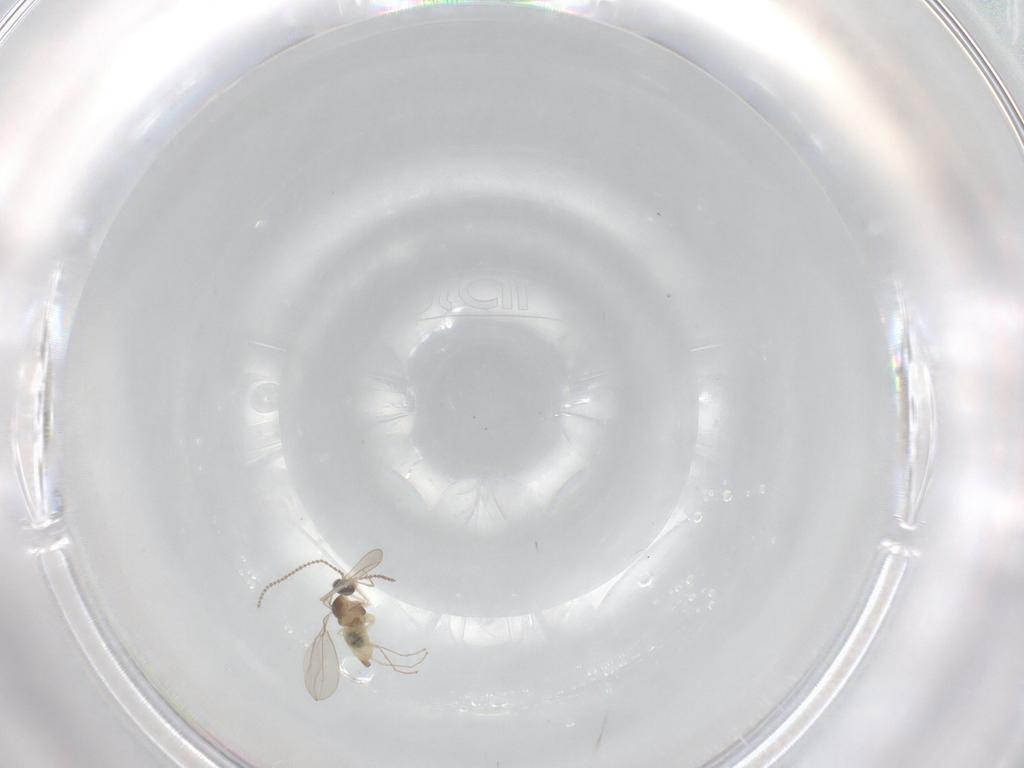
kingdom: Animalia
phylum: Arthropoda
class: Insecta
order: Diptera
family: Cecidomyiidae
